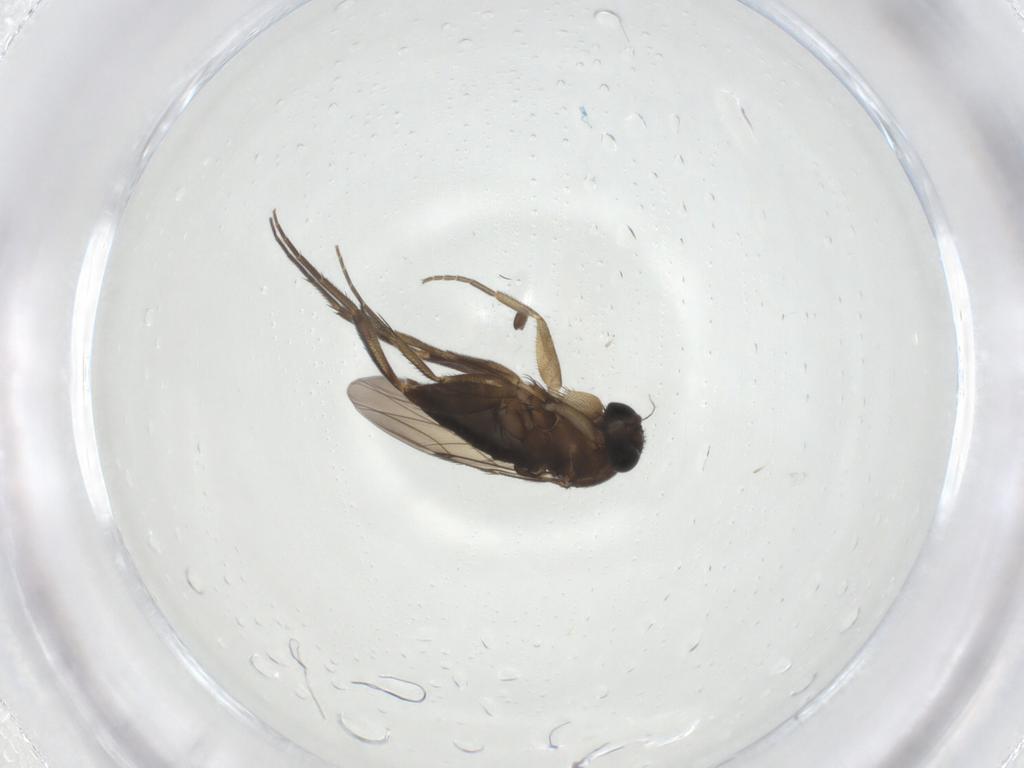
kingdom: Animalia
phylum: Arthropoda
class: Insecta
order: Diptera
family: Phoridae
